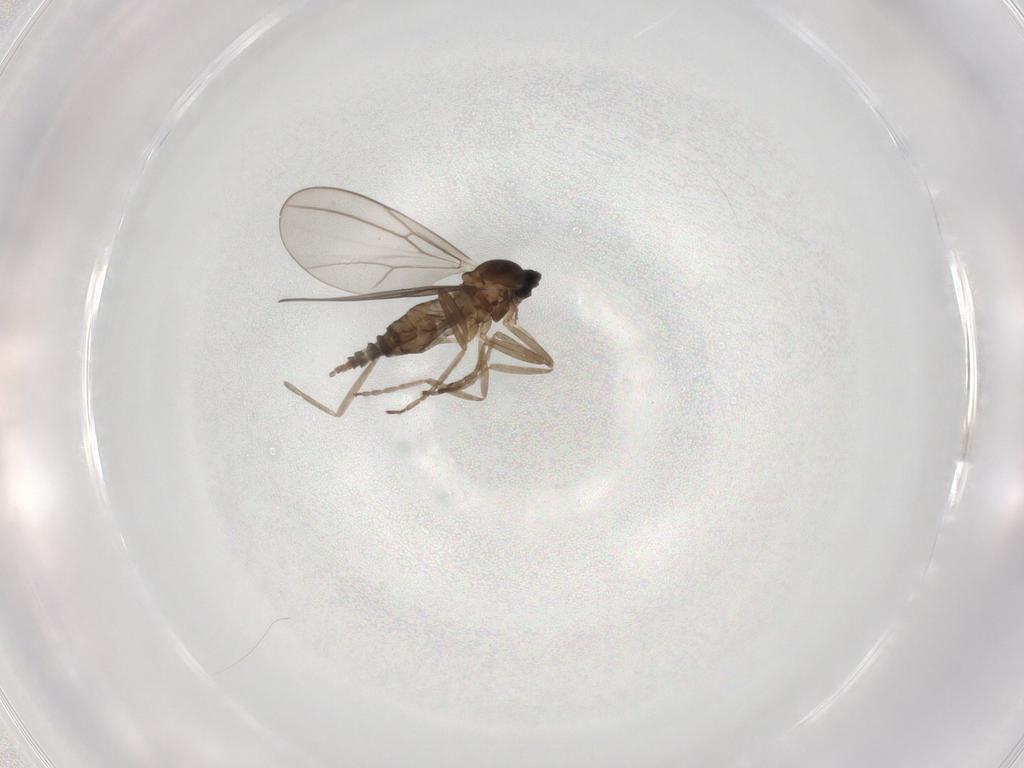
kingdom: Animalia
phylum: Arthropoda
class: Insecta
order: Diptera
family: Cecidomyiidae
